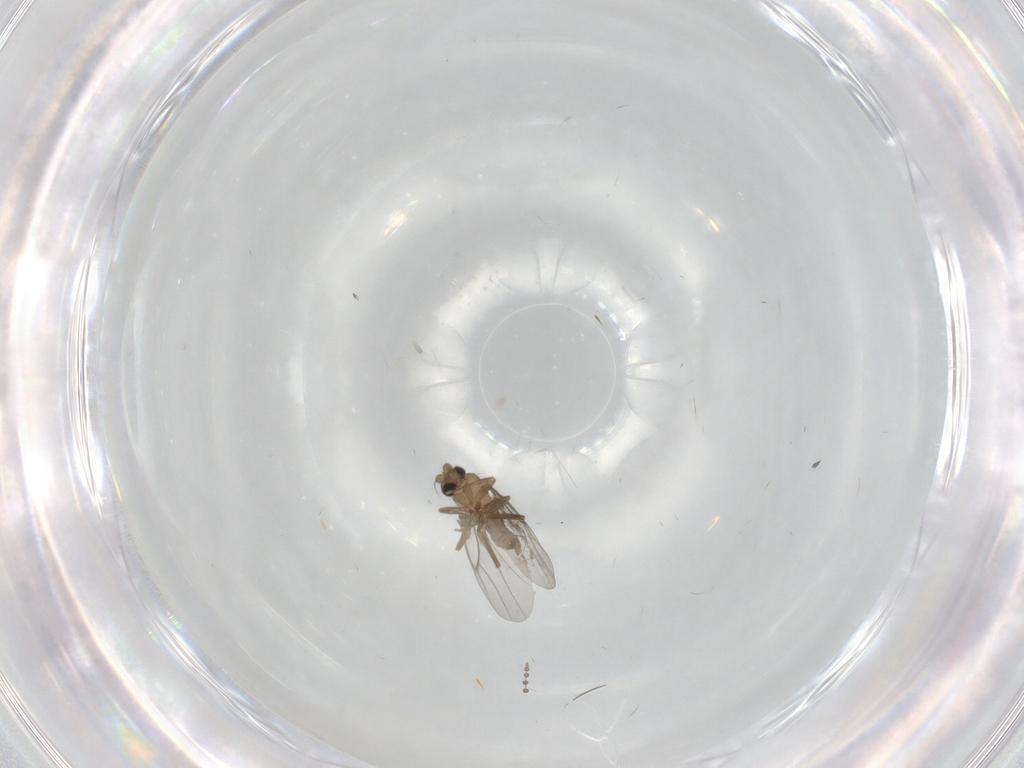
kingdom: Animalia
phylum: Arthropoda
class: Insecta
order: Diptera
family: Psychodidae
